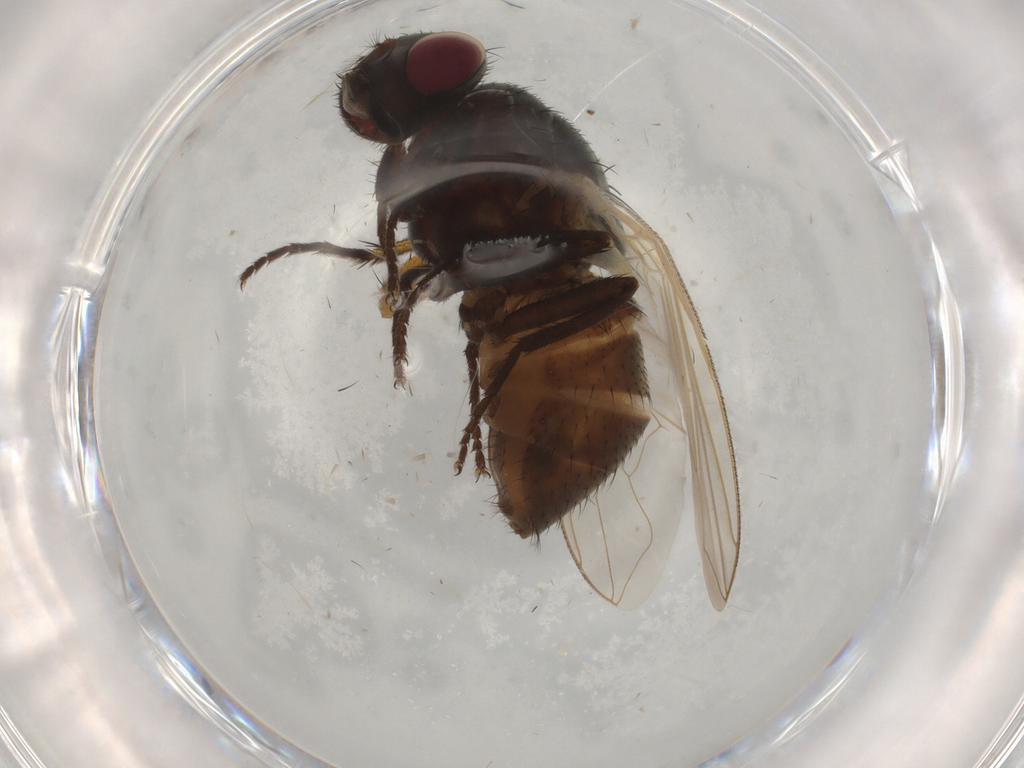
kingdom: Animalia
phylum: Arthropoda
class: Insecta
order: Diptera
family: Muscidae
